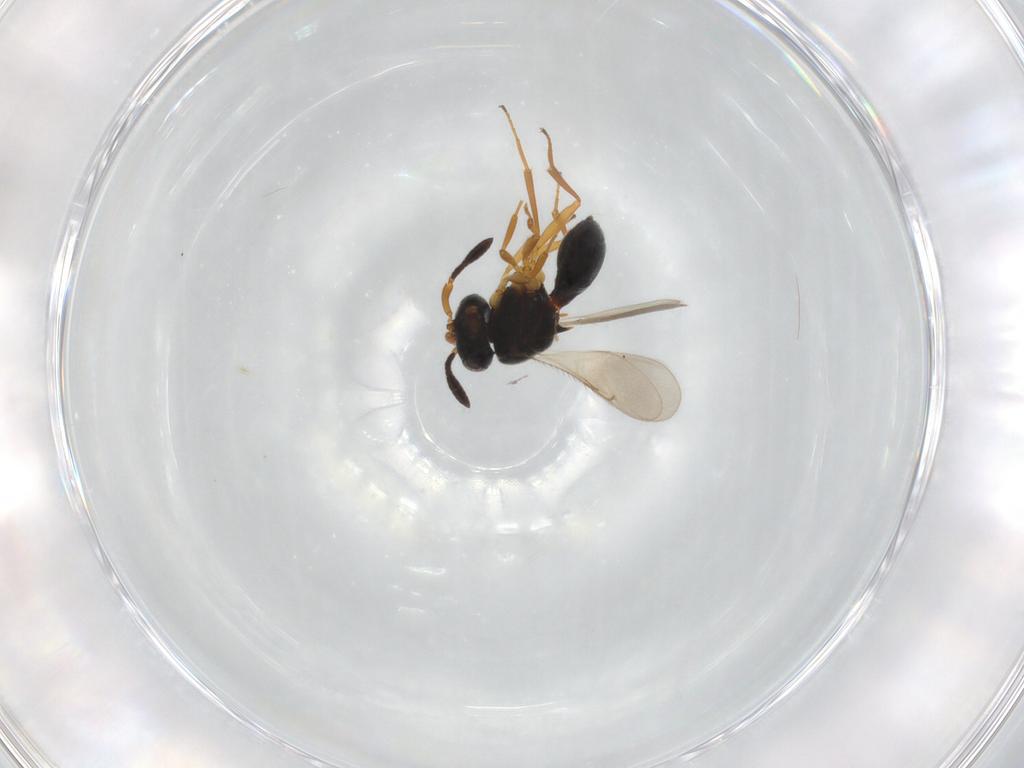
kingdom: Animalia
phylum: Arthropoda
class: Insecta
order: Hymenoptera
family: Scelionidae
